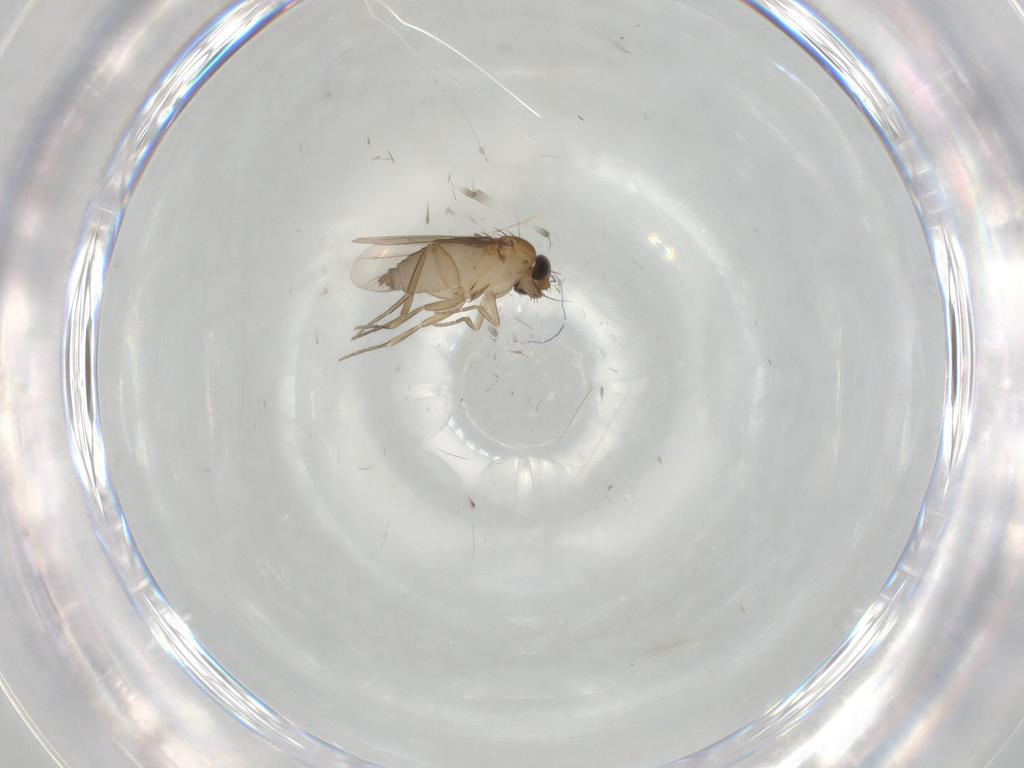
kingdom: Animalia
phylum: Arthropoda
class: Insecta
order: Diptera
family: Phoridae
